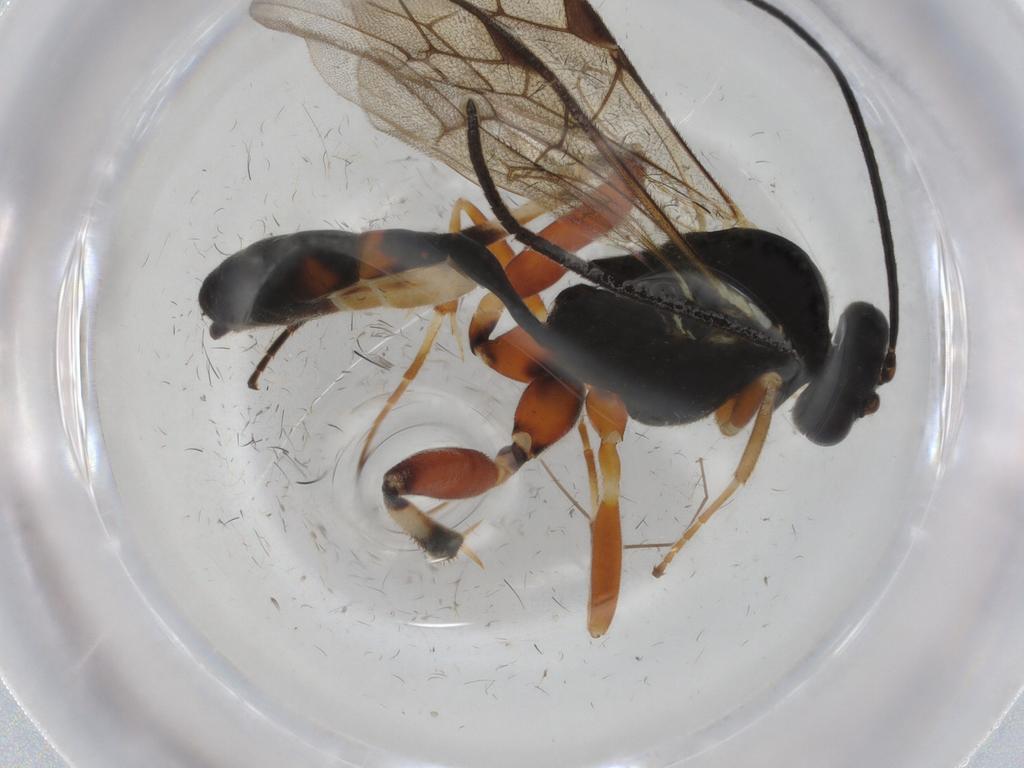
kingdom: Animalia
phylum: Arthropoda
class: Insecta
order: Hymenoptera
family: Ichneumonidae
